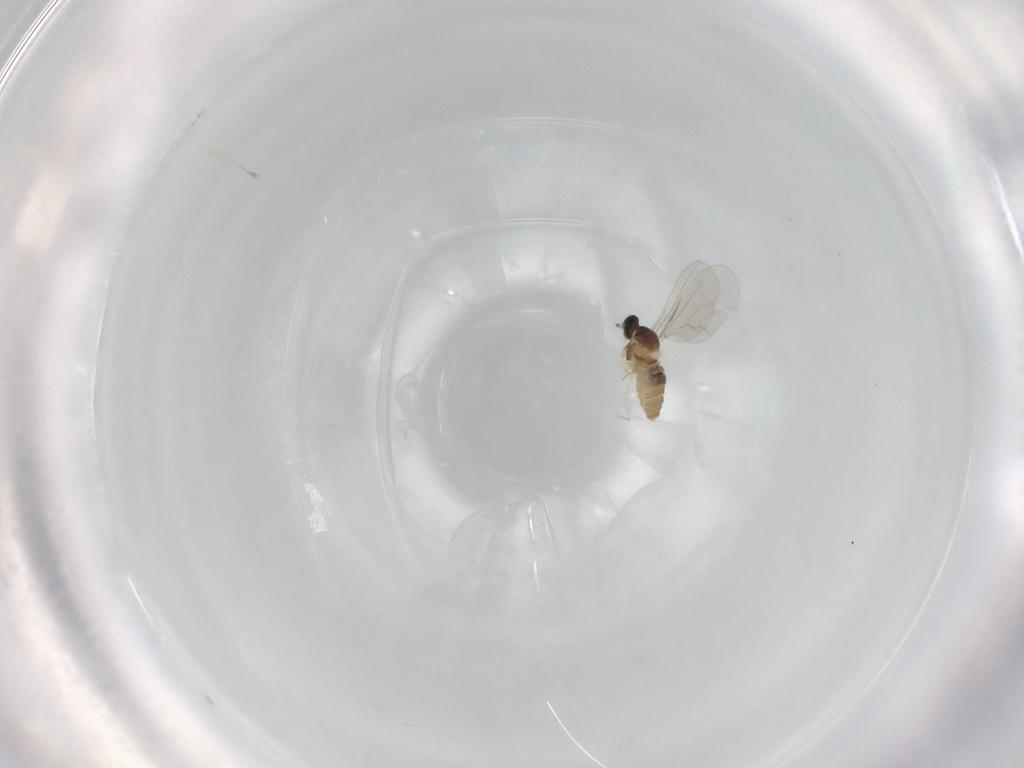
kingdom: Animalia
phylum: Arthropoda
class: Insecta
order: Diptera
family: Cecidomyiidae
